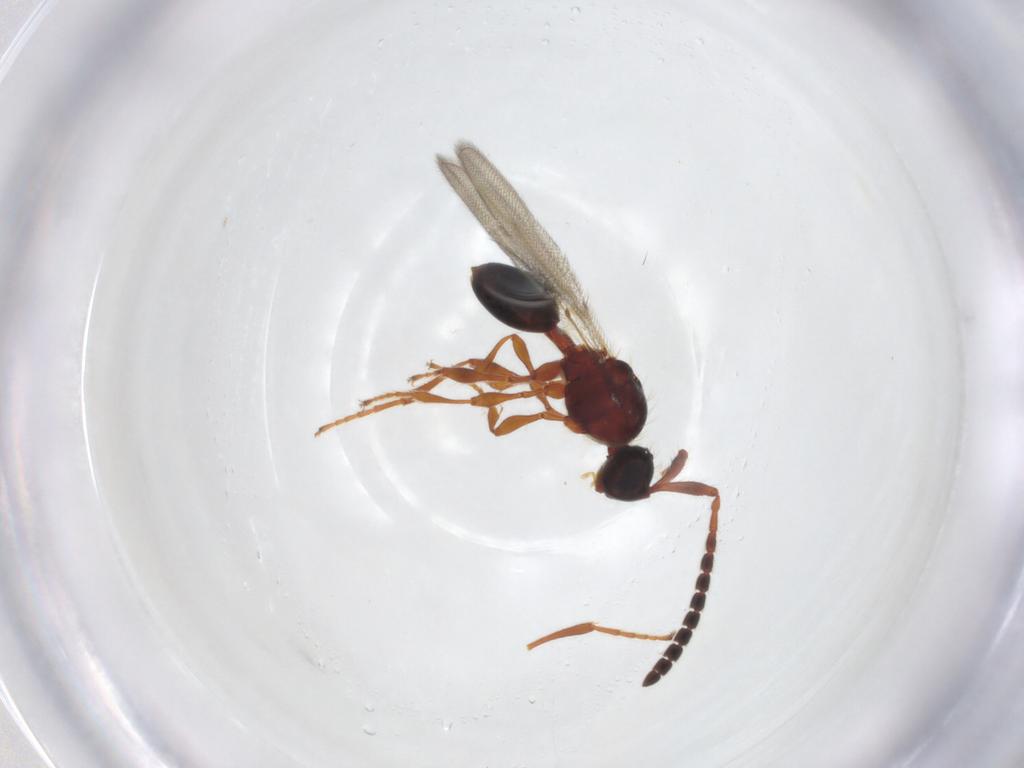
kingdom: Animalia
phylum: Arthropoda
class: Insecta
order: Hymenoptera
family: Diapriidae
